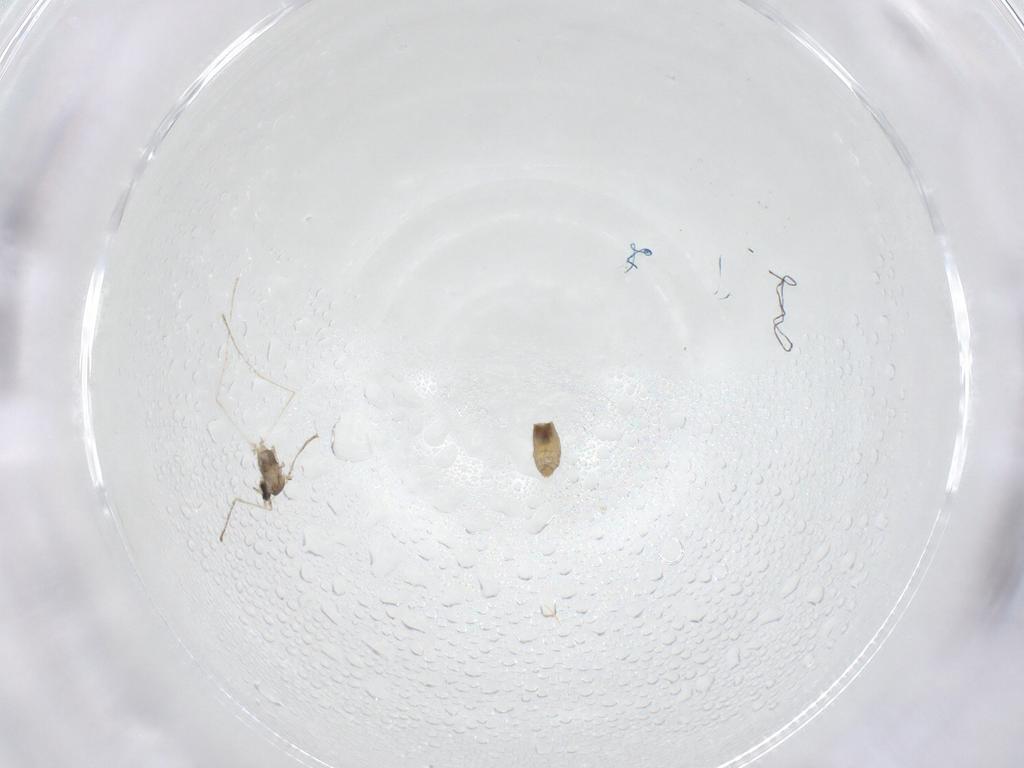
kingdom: Animalia
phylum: Arthropoda
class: Insecta
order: Diptera
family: Cecidomyiidae
